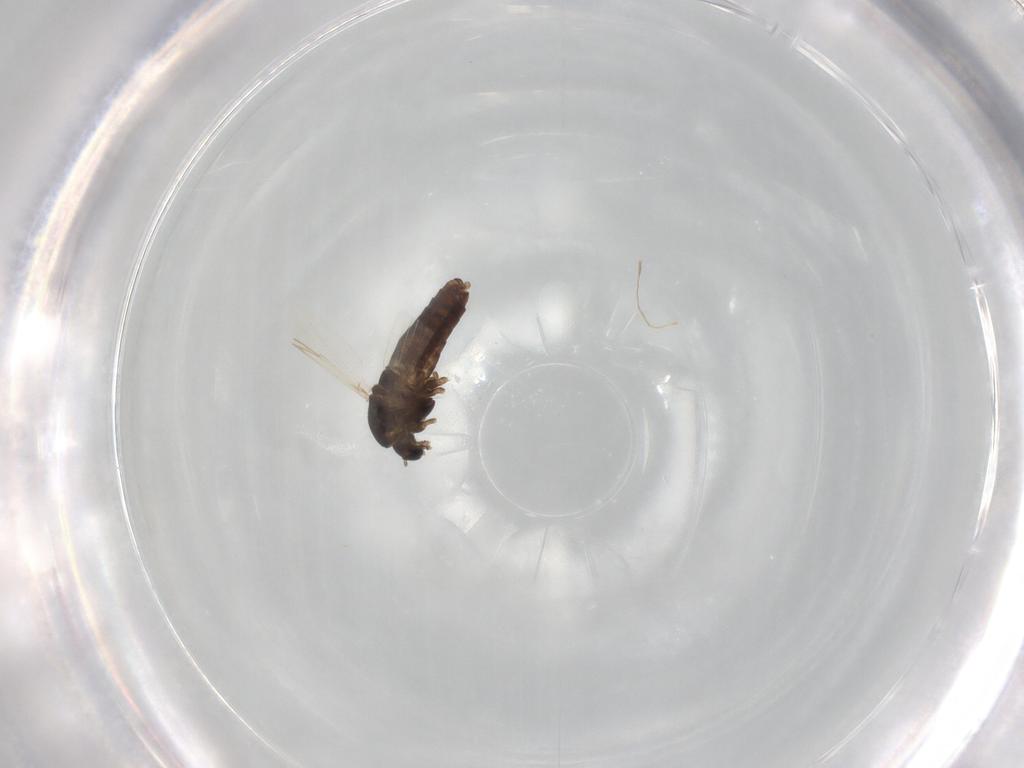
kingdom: Animalia
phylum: Arthropoda
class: Insecta
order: Diptera
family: Chironomidae
